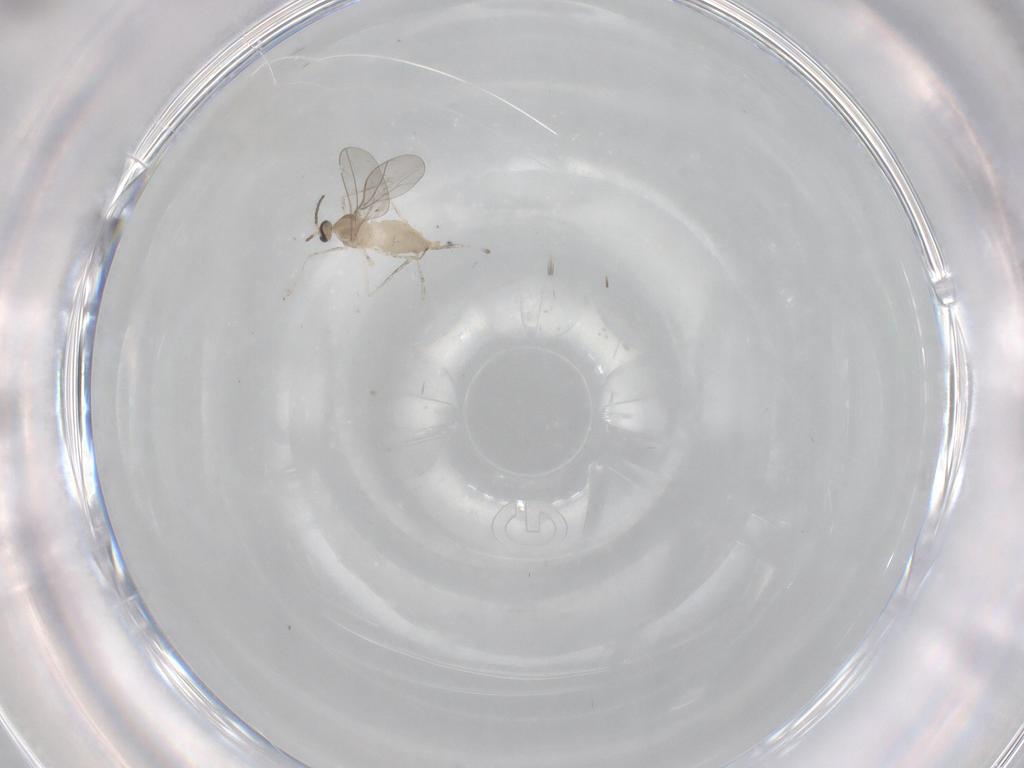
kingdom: Animalia
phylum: Arthropoda
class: Insecta
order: Diptera
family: Cecidomyiidae
